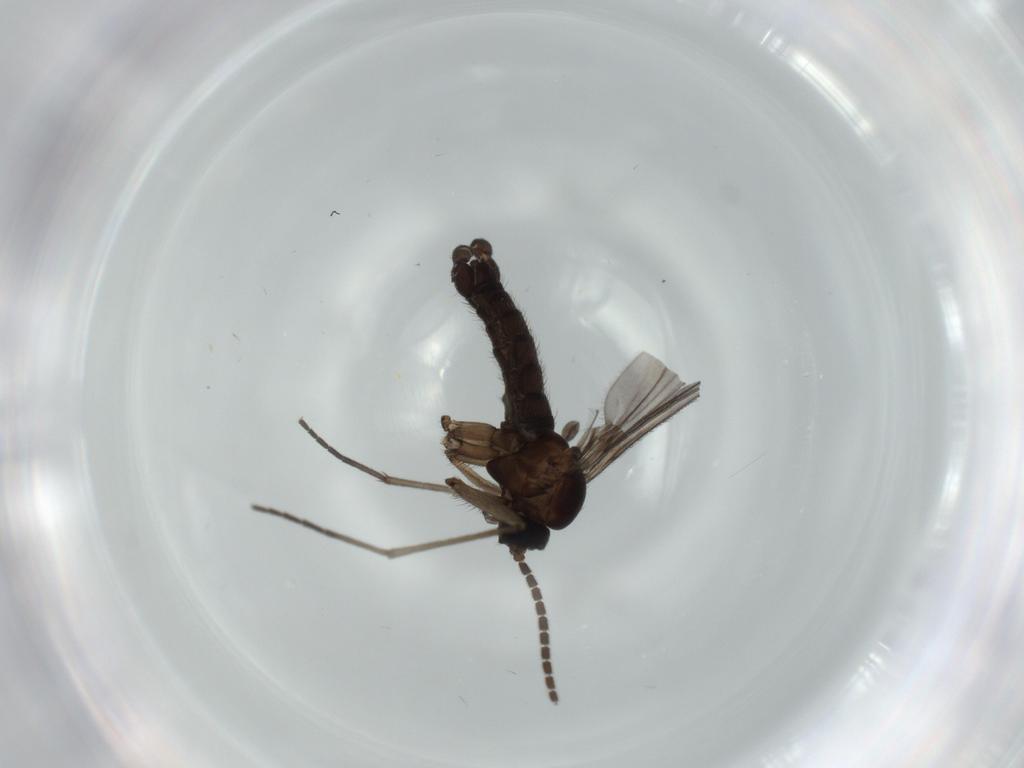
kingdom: Animalia
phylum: Arthropoda
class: Insecta
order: Diptera
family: Sciaridae
